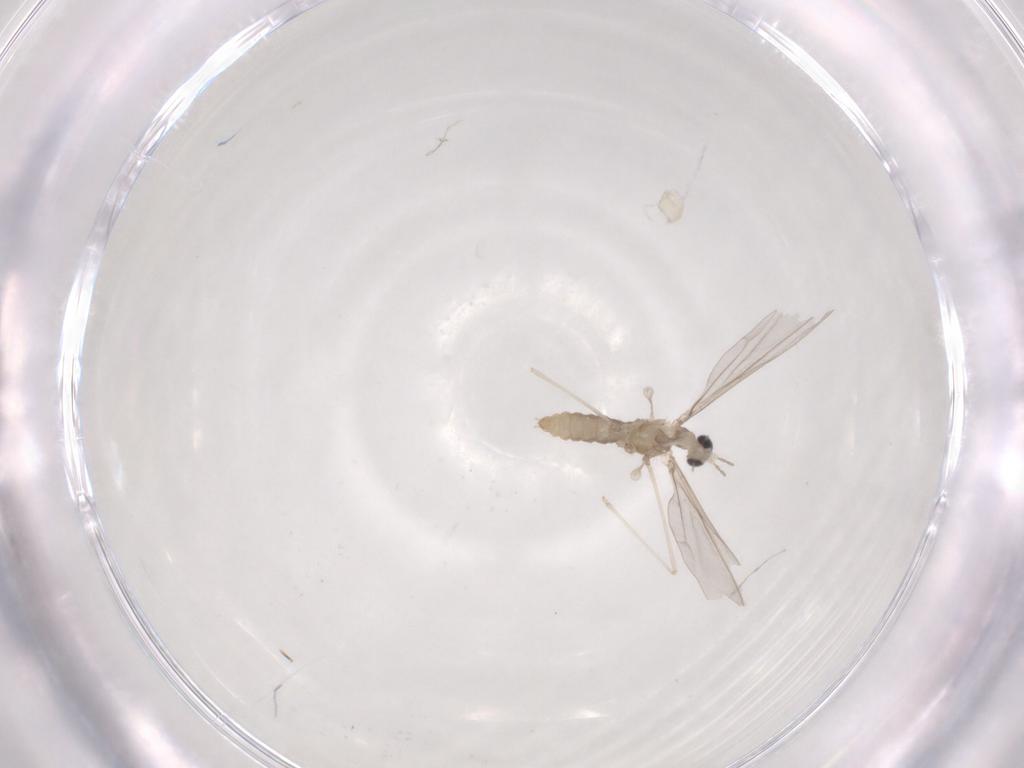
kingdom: Animalia
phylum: Arthropoda
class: Insecta
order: Diptera
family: Cecidomyiidae
